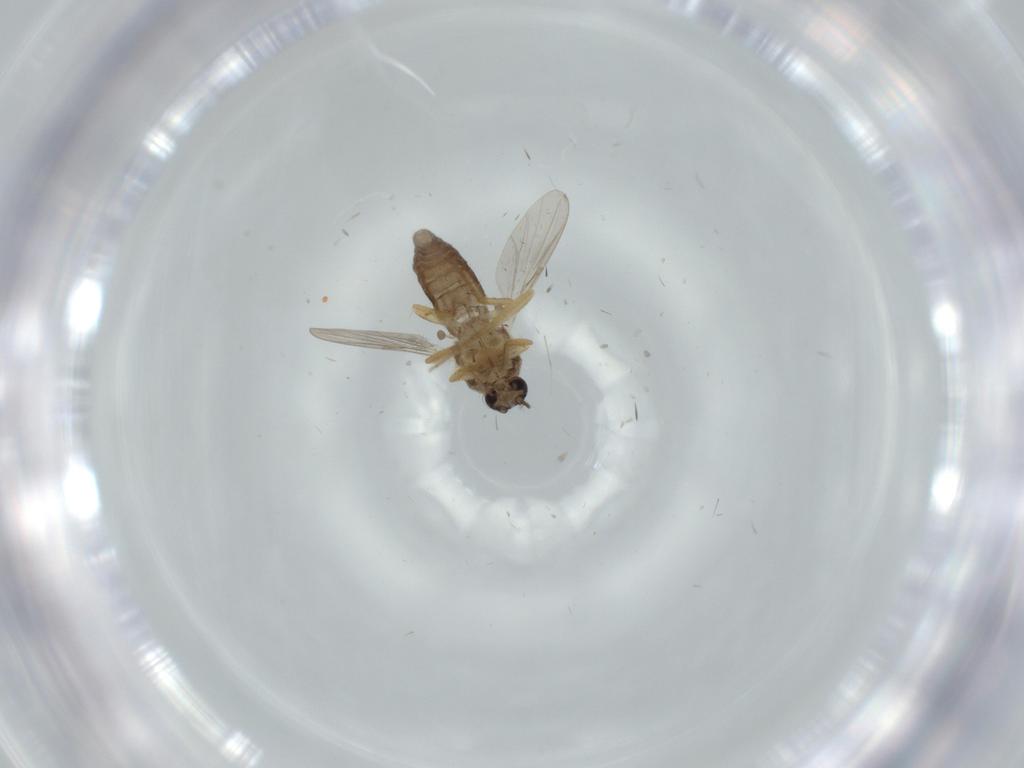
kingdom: Animalia
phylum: Arthropoda
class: Insecta
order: Diptera
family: Ceratopogonidae
